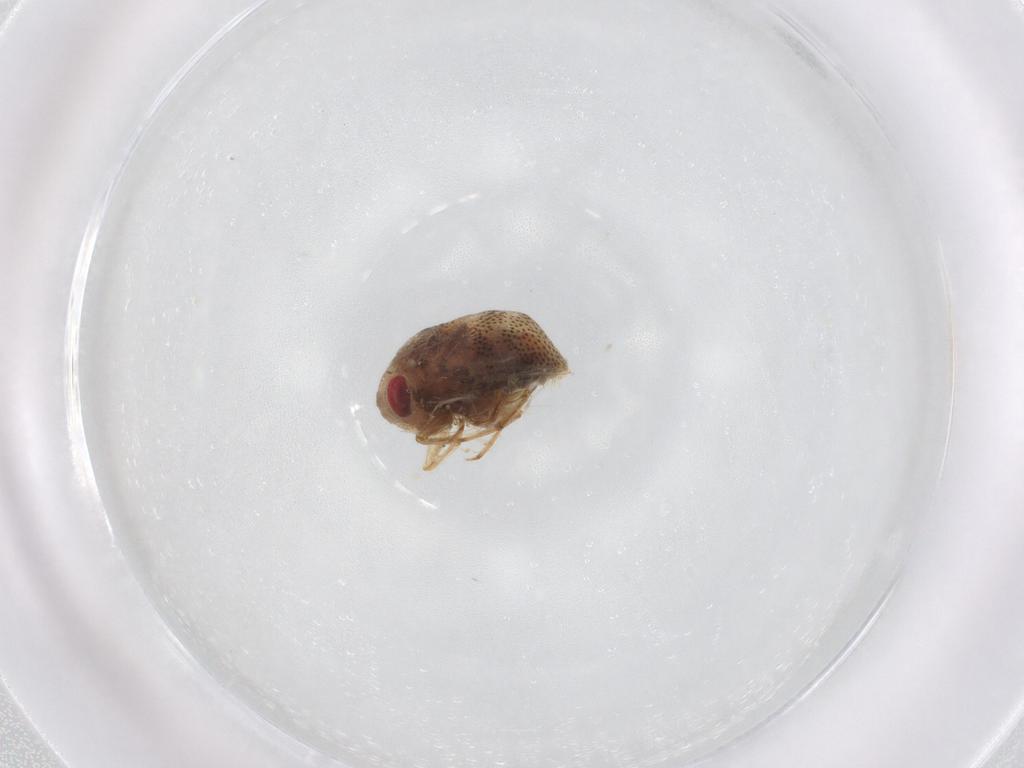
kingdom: Animalia
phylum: Arthropoda
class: Insecta
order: Hemiptera
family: Pleidae
